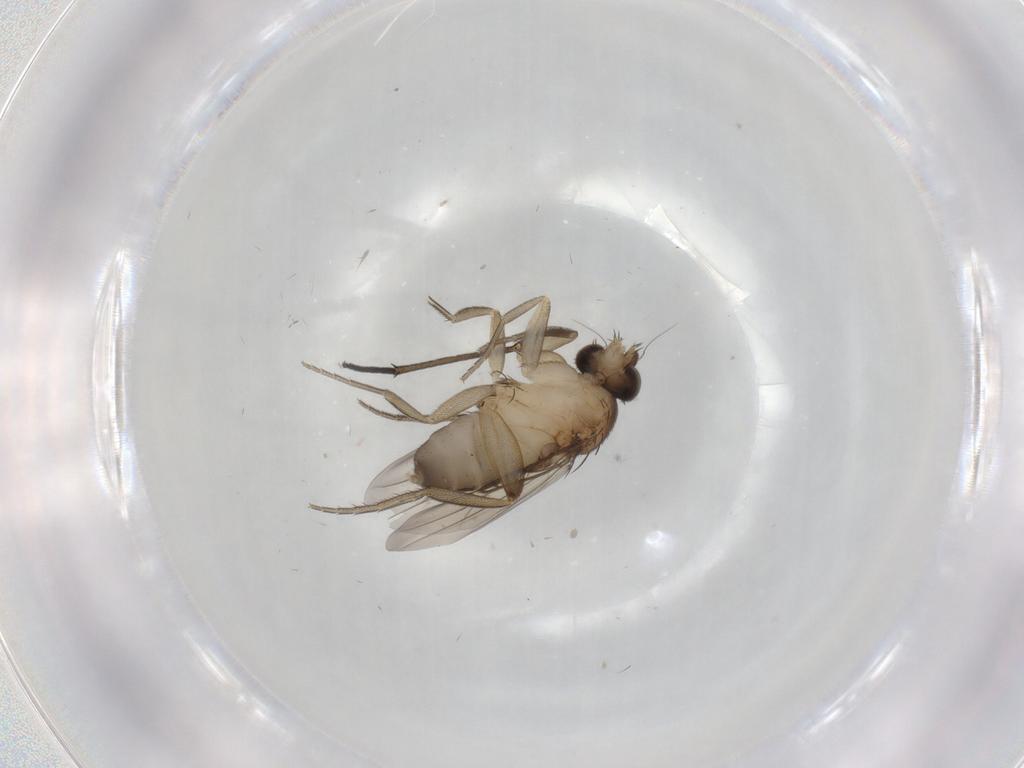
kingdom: Animalia
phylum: Arthropoda
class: Insecta
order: Diptera
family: Sciaridae
